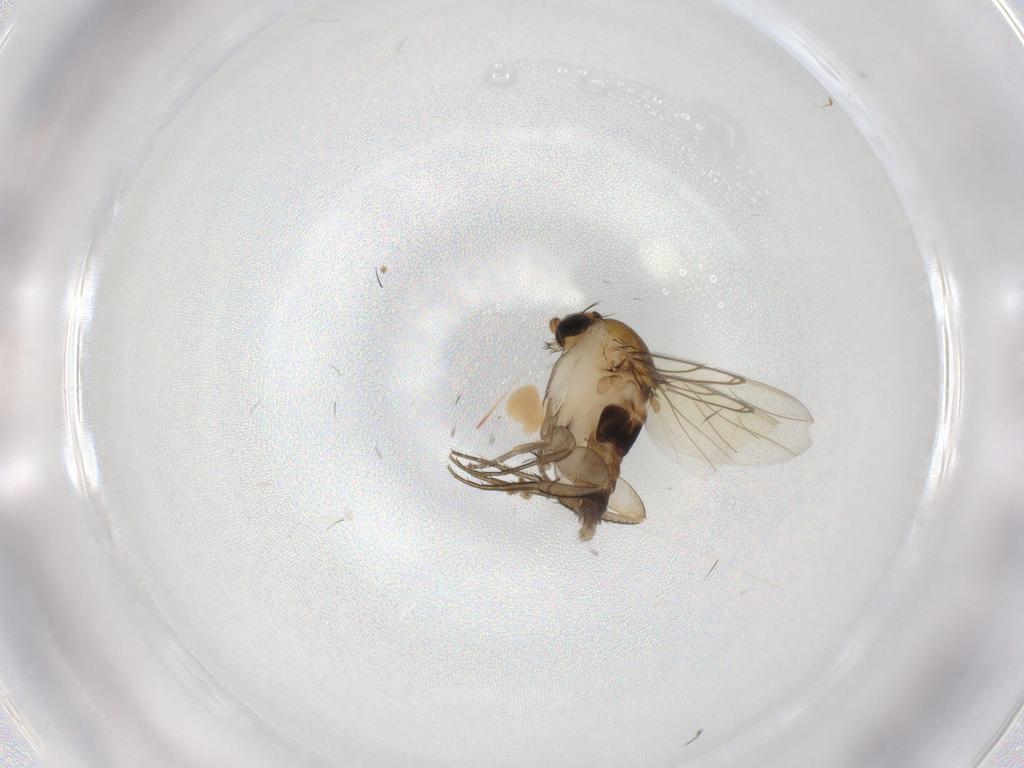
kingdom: Animalia
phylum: Arthropoda
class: Insecta
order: Diptera
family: Phoridae
